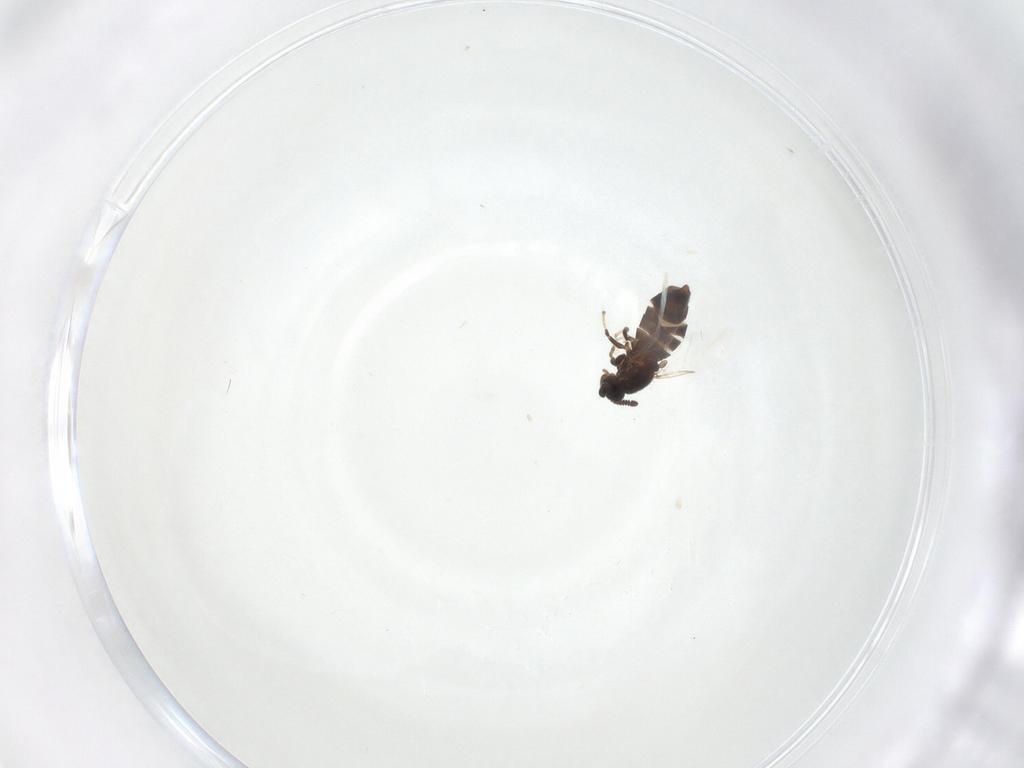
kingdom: Animalia
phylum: Arthropoda
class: Insecta
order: Diptera
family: Scatopsidae
